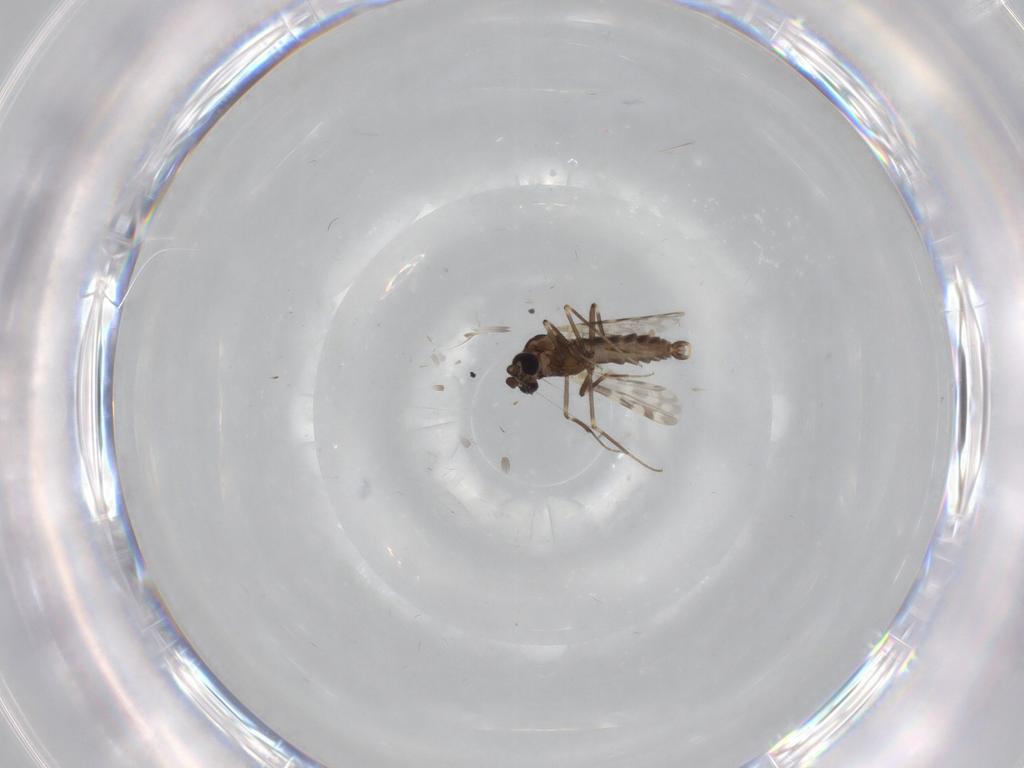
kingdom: Animalia
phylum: Arthropoda
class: Insecta
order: Diptera
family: Ceratopogonidae
